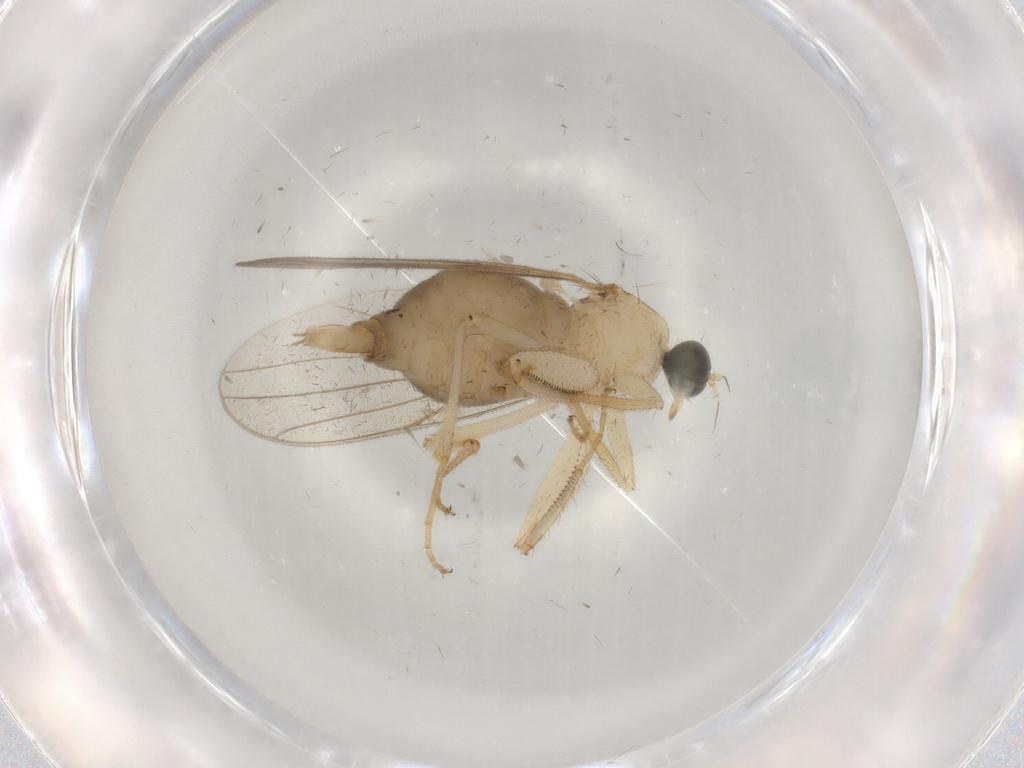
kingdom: Animalia
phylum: Arthropoda
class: Insecta
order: Diptera
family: Hybotidae
